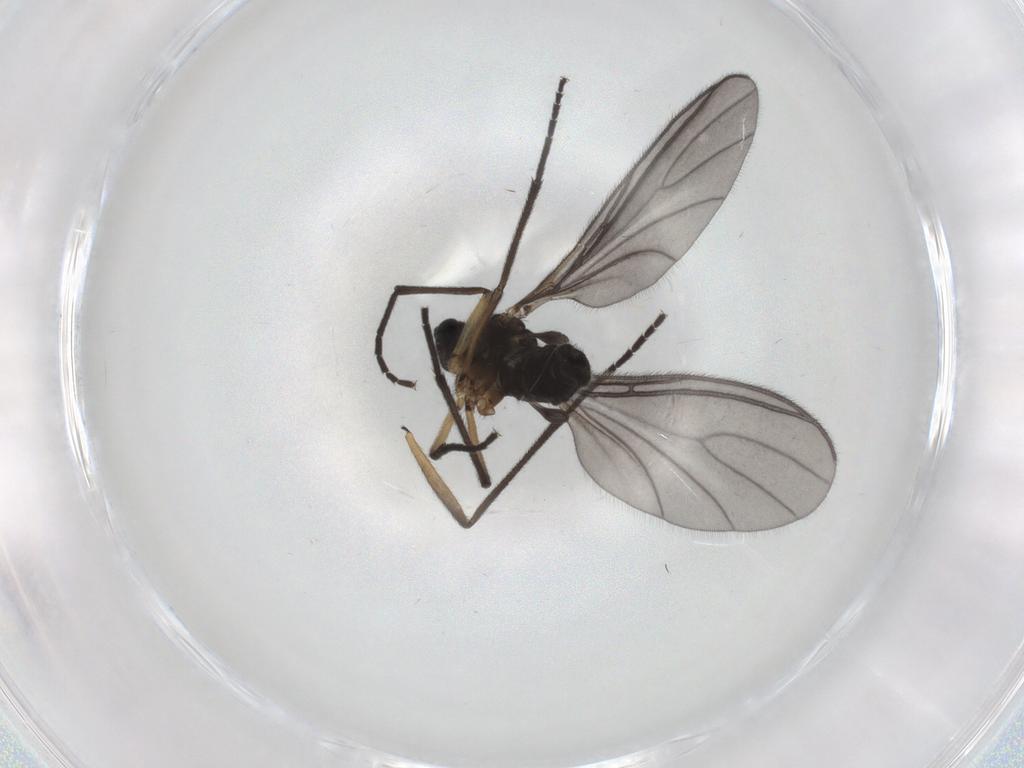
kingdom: Animalia
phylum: Arthropoda
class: Insecta
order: Diptera
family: Sciaridae
